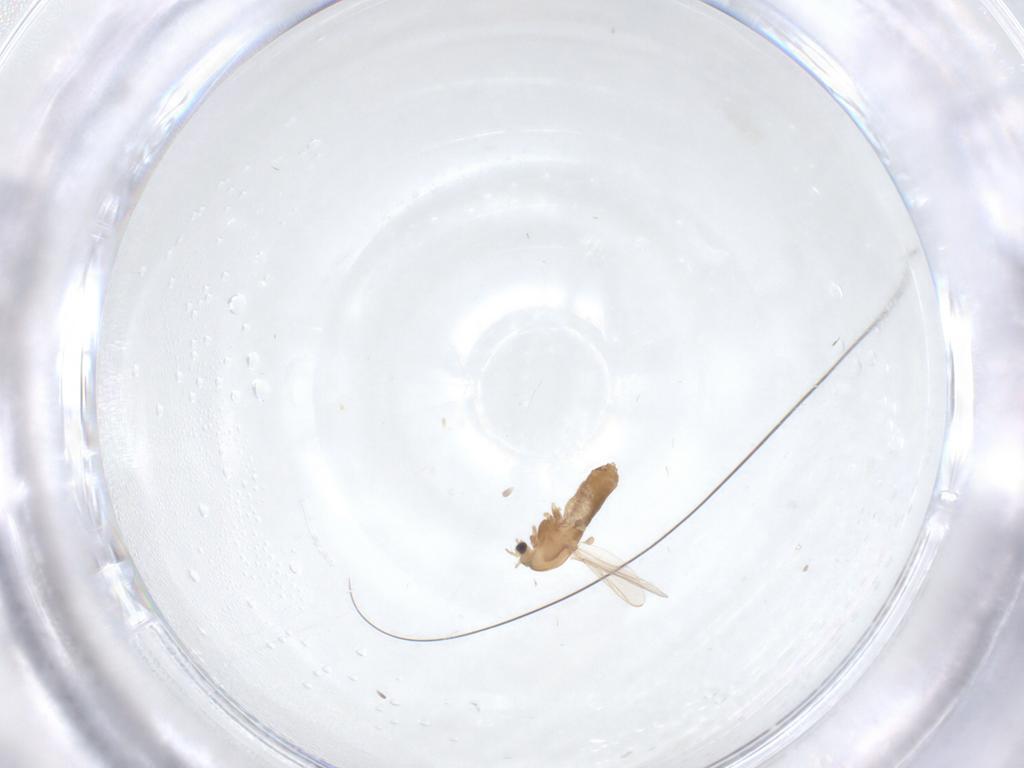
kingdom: Animalia
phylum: Arthropoda
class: Insecta
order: Diptera
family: Chironomidae
